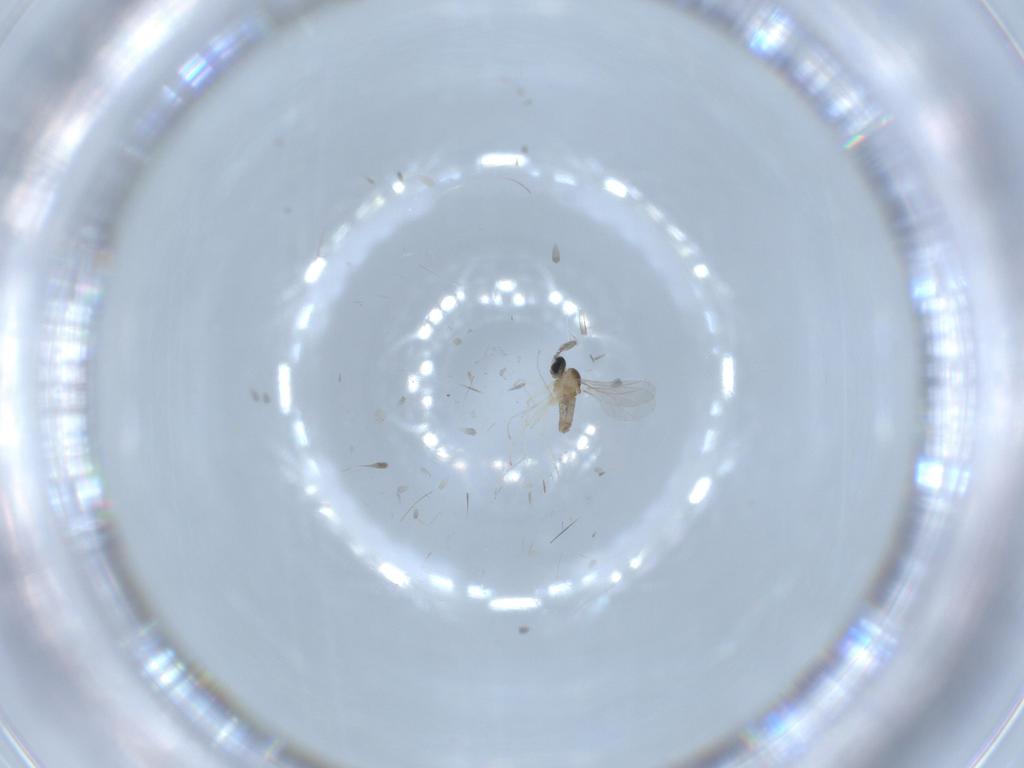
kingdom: Animalia
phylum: Arthropoda
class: Insecta
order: Diptera
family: Cecidomyiidae
